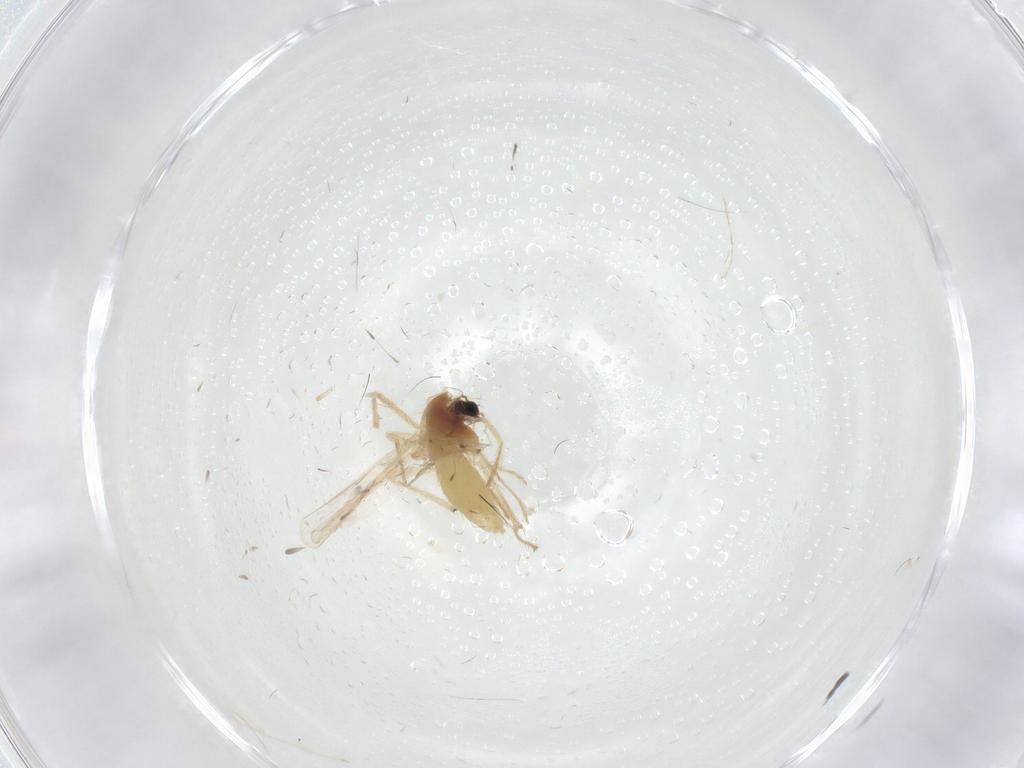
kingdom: Animalia
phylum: Arthropoda
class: Insecta
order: Diptera
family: Chironomidae
